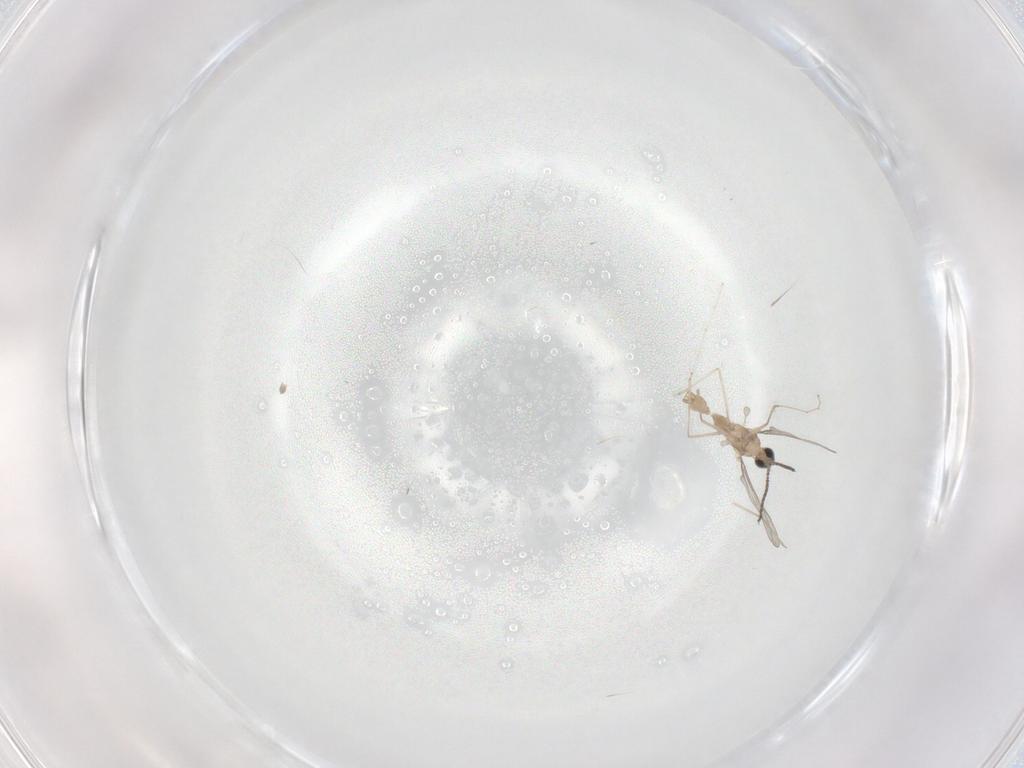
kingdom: Animalia
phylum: Arthropoda
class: Insecta
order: Diptera
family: Cecidomyiidae
